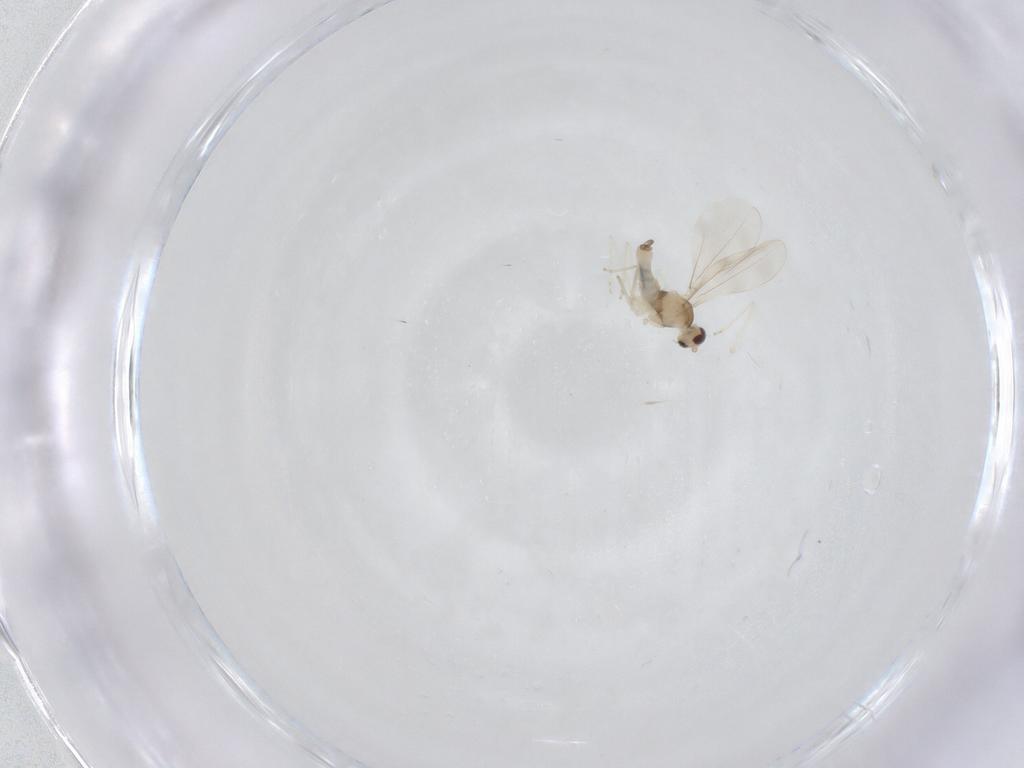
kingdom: Animalia
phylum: Arthropoda
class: Insecta
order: Diptera
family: Cecidomyiidae
